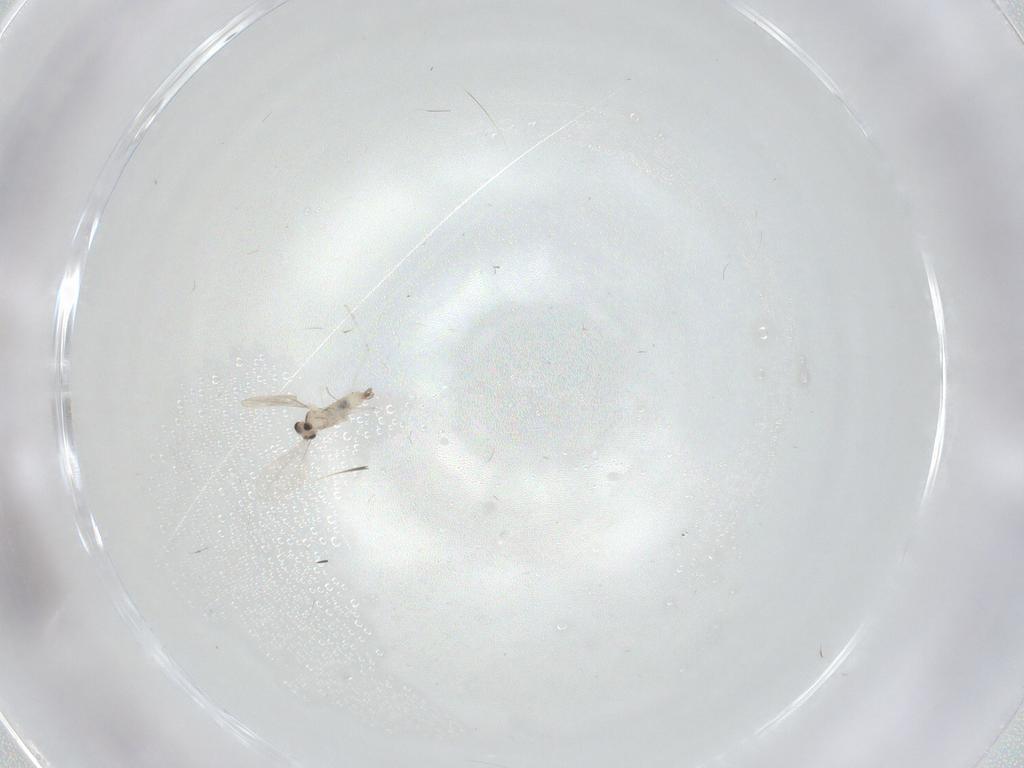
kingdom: Animalia
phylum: Arthropoda
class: Insecta
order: Diptera
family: Cecidomyiidae
